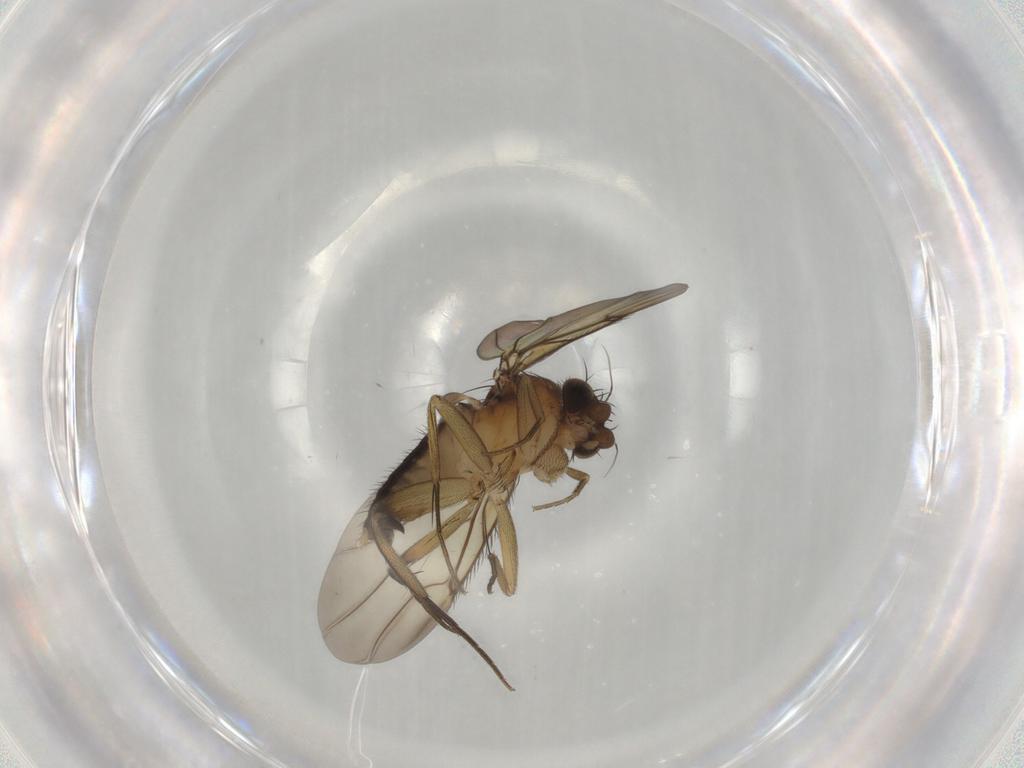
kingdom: Animalia
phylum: Arthropoda
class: Insecta
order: Diptera
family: Phoridae
